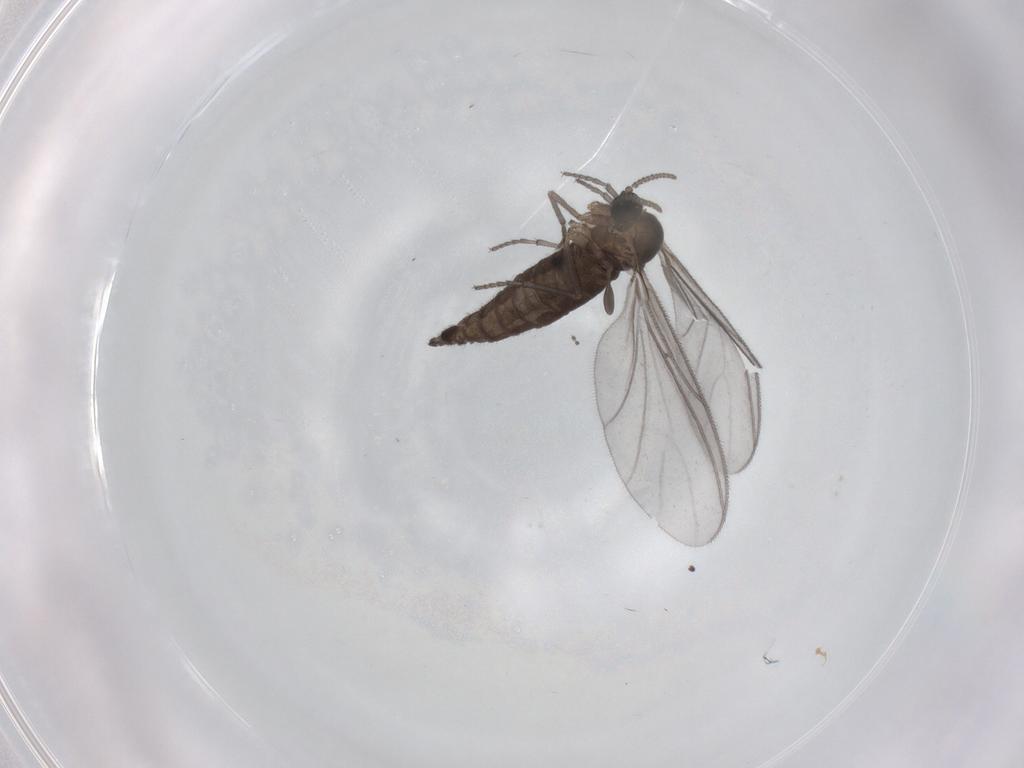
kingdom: Animalia
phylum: Arthropoda
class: Insecta
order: Diptera
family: Sciaridae
